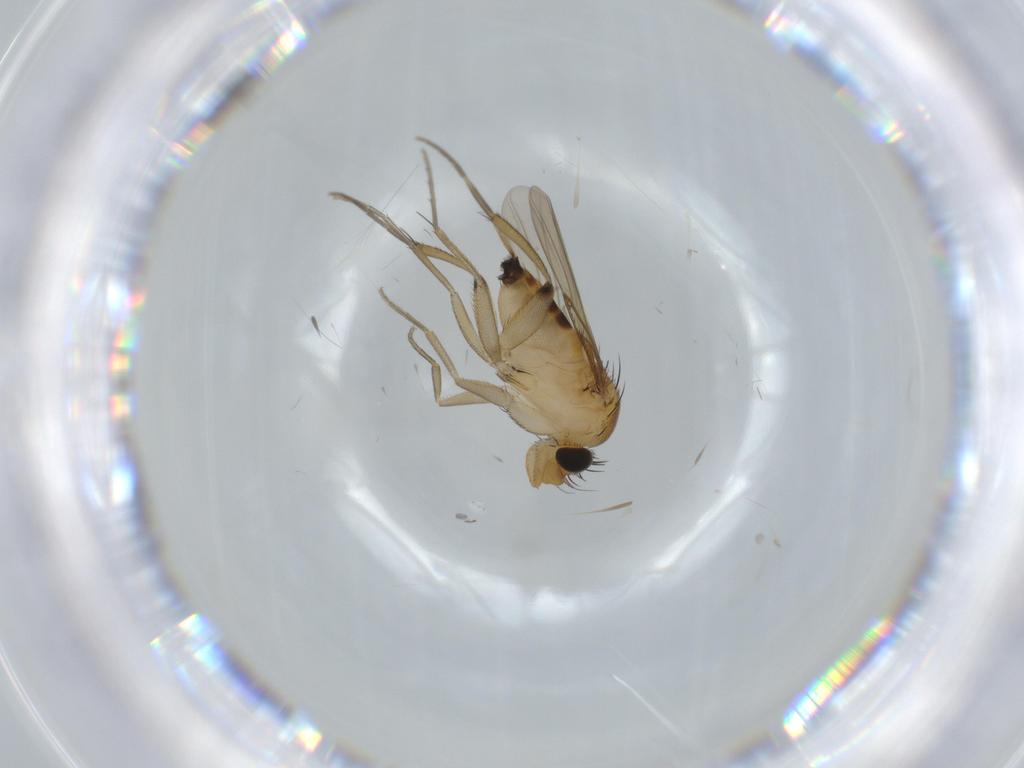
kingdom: Animalia
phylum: Arthropoda
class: Insecta
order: Diptera
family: Phoridae
